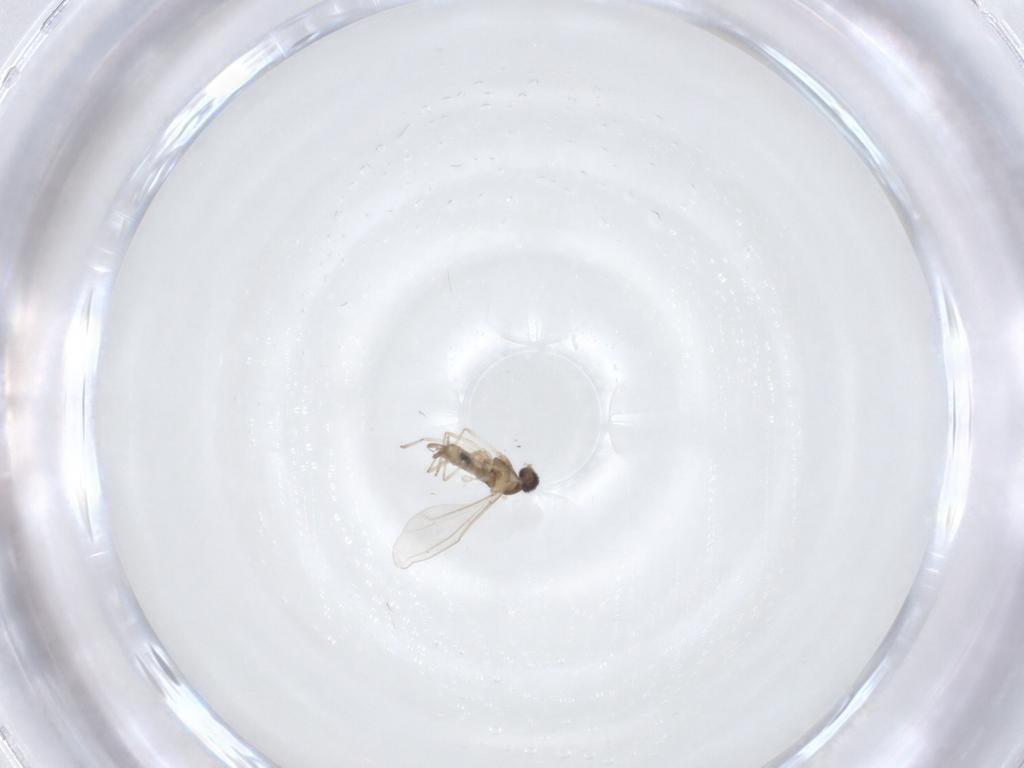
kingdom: Animalia
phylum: Arthropoda
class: Insecta
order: Diptera
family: Cecidomyiidae
